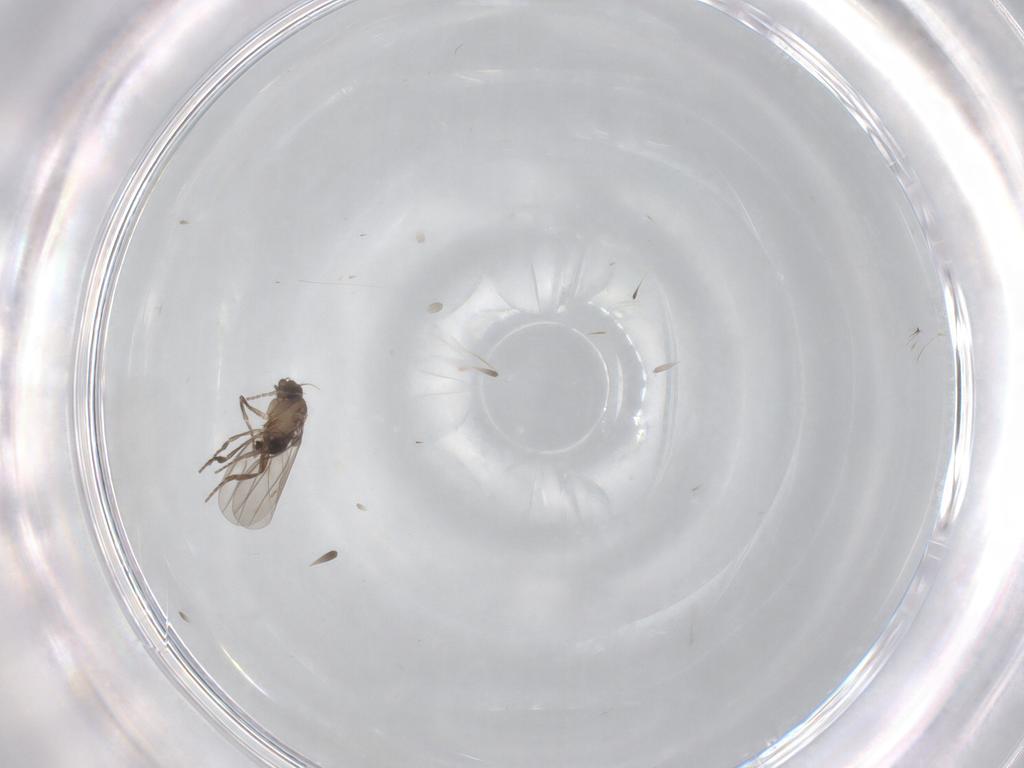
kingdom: Animalia
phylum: Arthropoda
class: Insecta
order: Diptera
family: Phoridae
